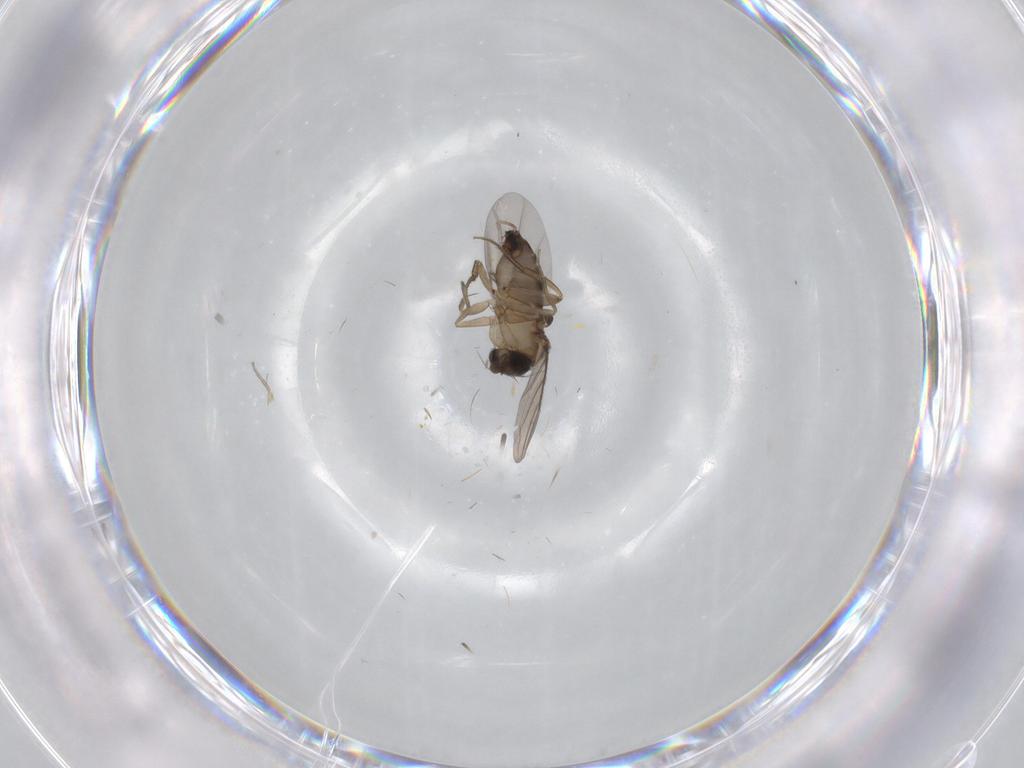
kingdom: Animalia
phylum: Arthropoda
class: Insecta
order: Diptera
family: Phoridae
